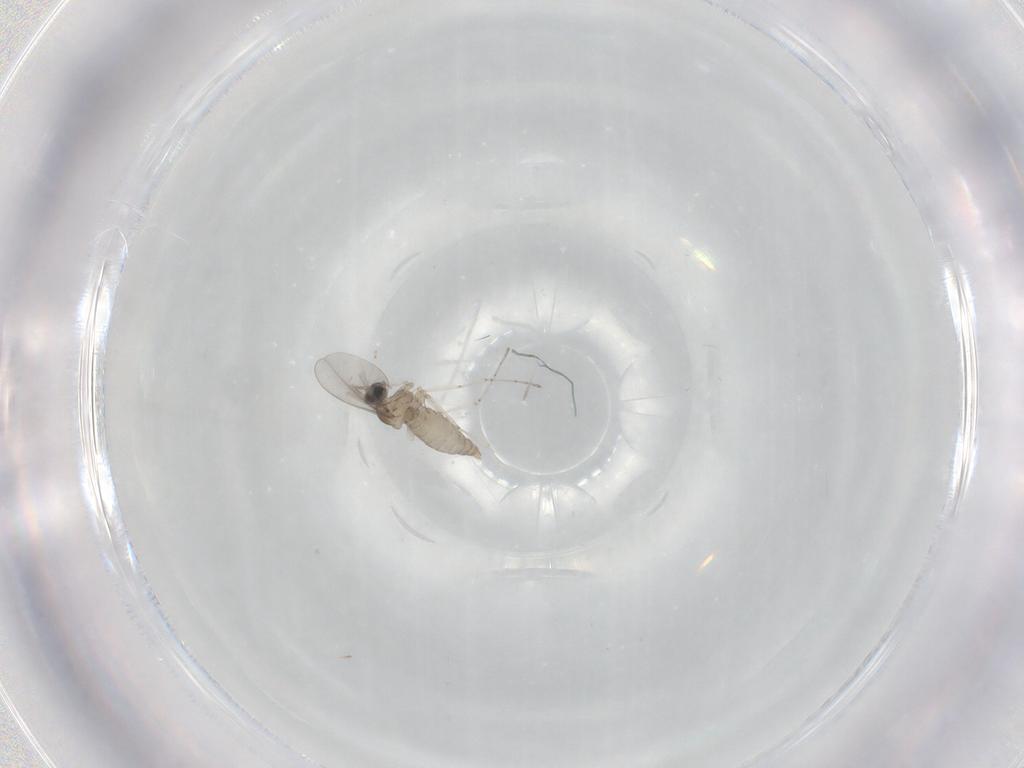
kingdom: Animalia
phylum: Arthropoda
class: Insecta
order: Diptera
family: Cecidomyiidae
